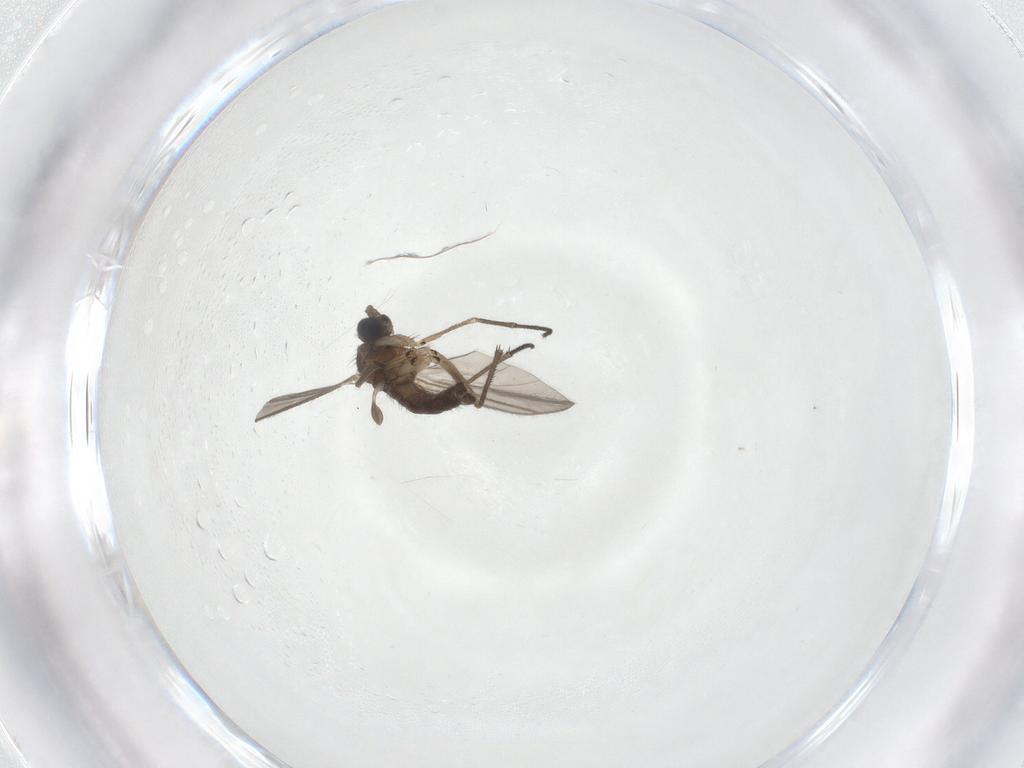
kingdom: Animalia
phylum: Arthropoda
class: Insecta
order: Diptera
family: Sciaridae
